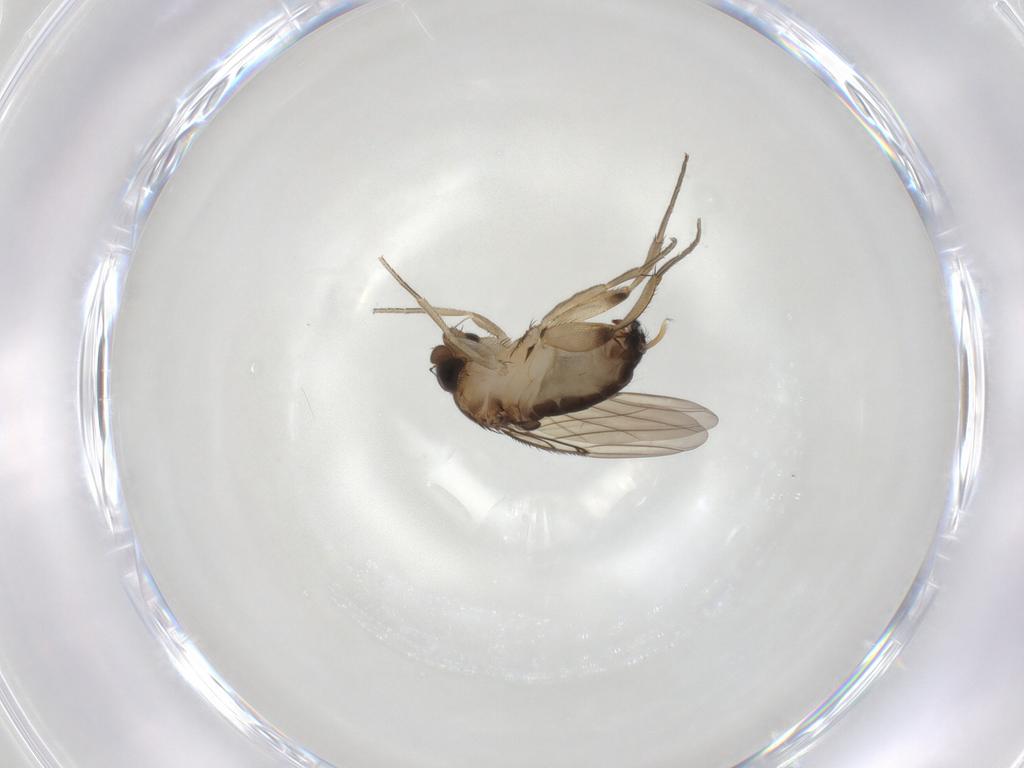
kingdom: Animalia
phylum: Arthropoda
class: Insecta
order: Diptera
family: Phoridae
